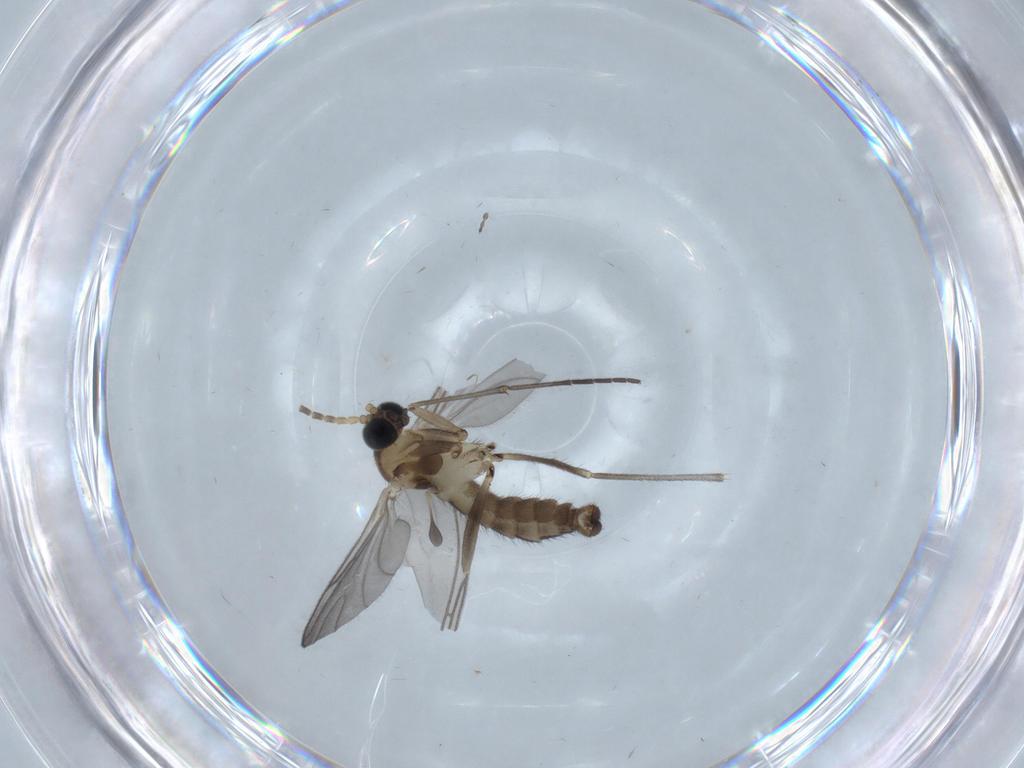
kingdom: Animalia
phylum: Arthropoda
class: Insecta
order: Diptera
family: Sciaridae
